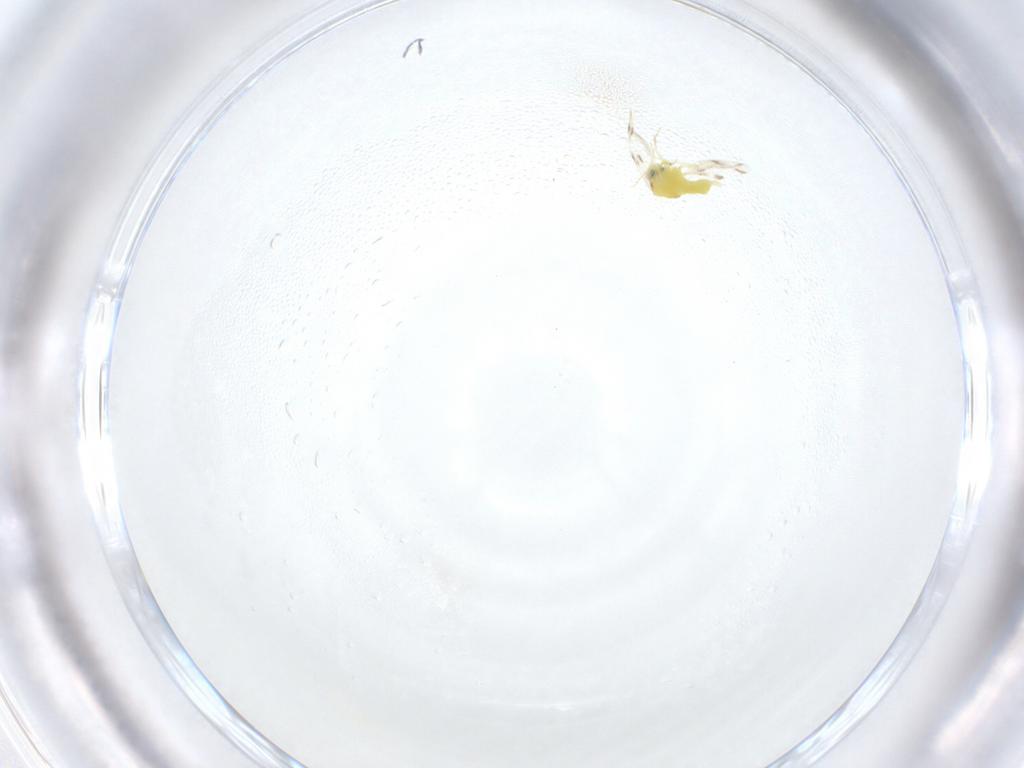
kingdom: Animalia
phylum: Arthropoda
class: Insecta
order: Hemiptera
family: Aleyrodidae
